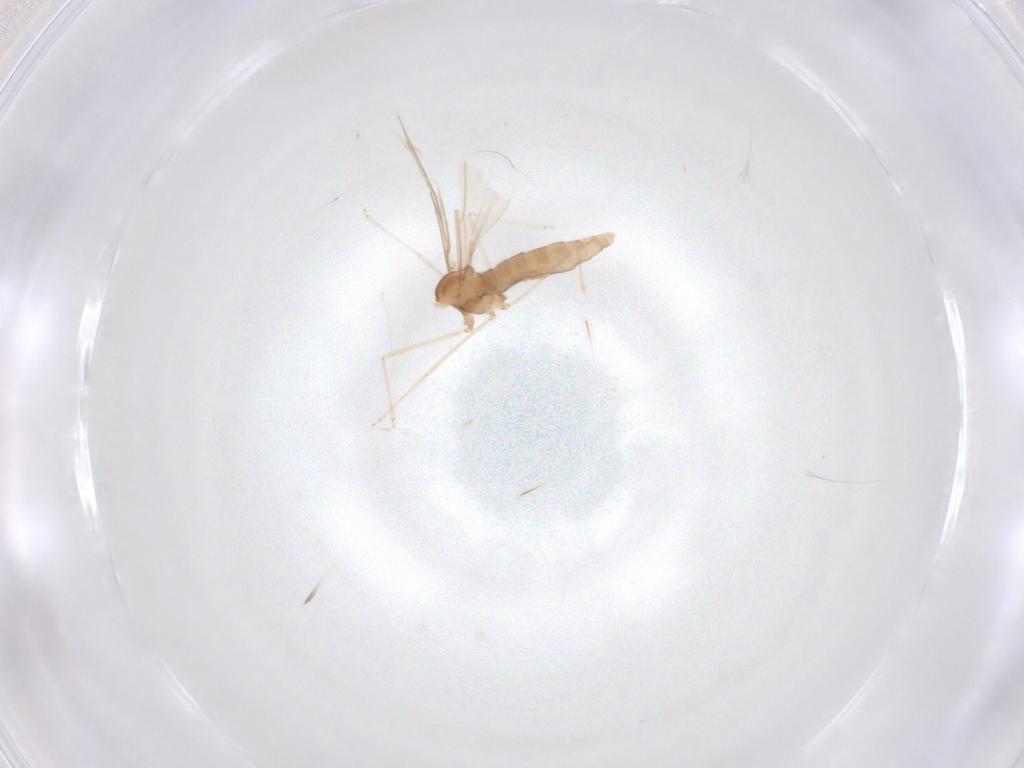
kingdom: Animalia
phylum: Arthropoda
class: Insecta
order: Diptera
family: Cecidomyiidae
